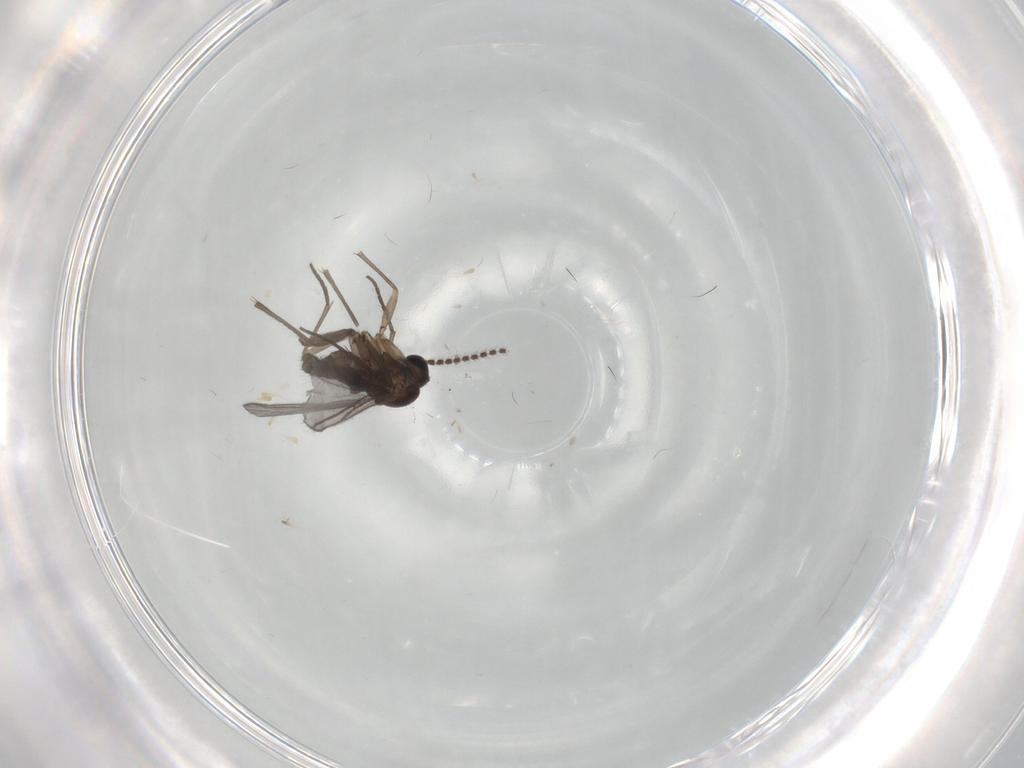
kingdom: Animalia
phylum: Arthropoda
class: Insecta
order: Diptera
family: Sciaridae
